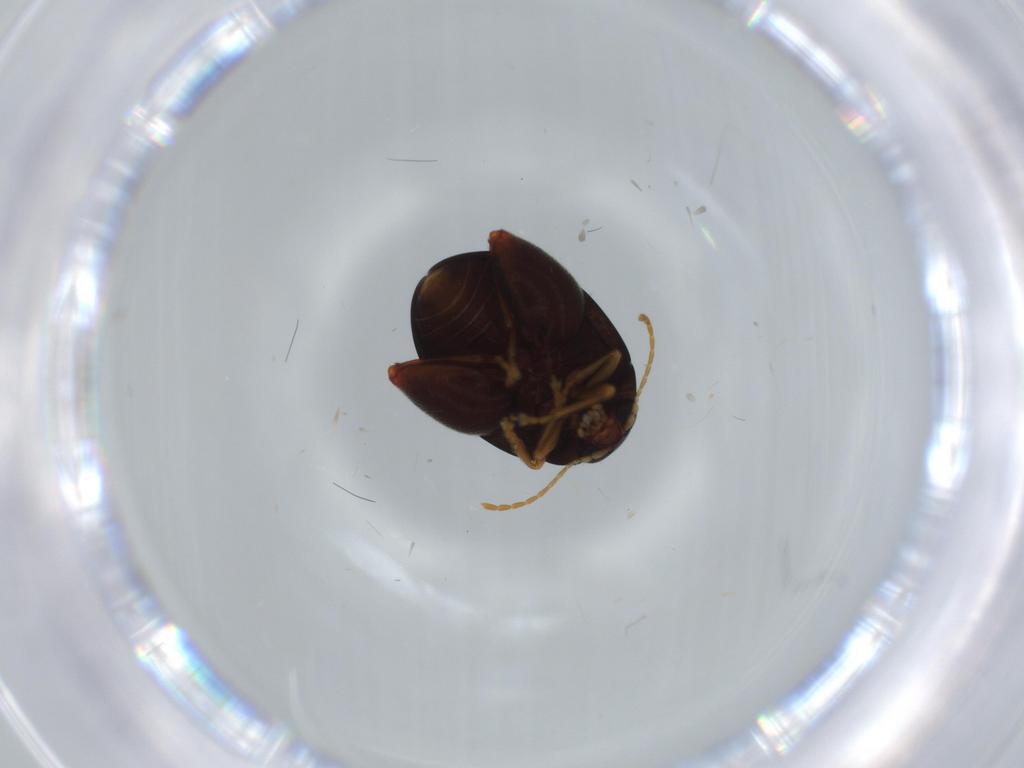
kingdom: Animalia
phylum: Arthropoda
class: Insecta
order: Coleoptera
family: Chrysomelidae
